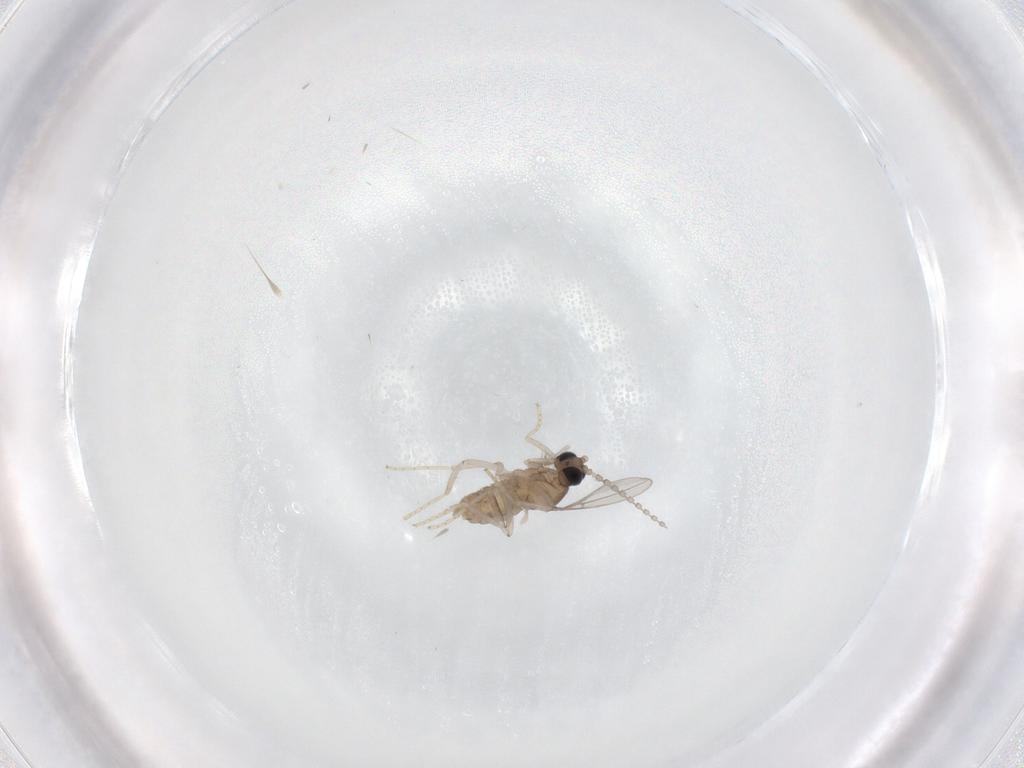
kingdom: Animalia
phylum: Arthropoda
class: Insecta
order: Diptera
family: Cecidomyiidae
